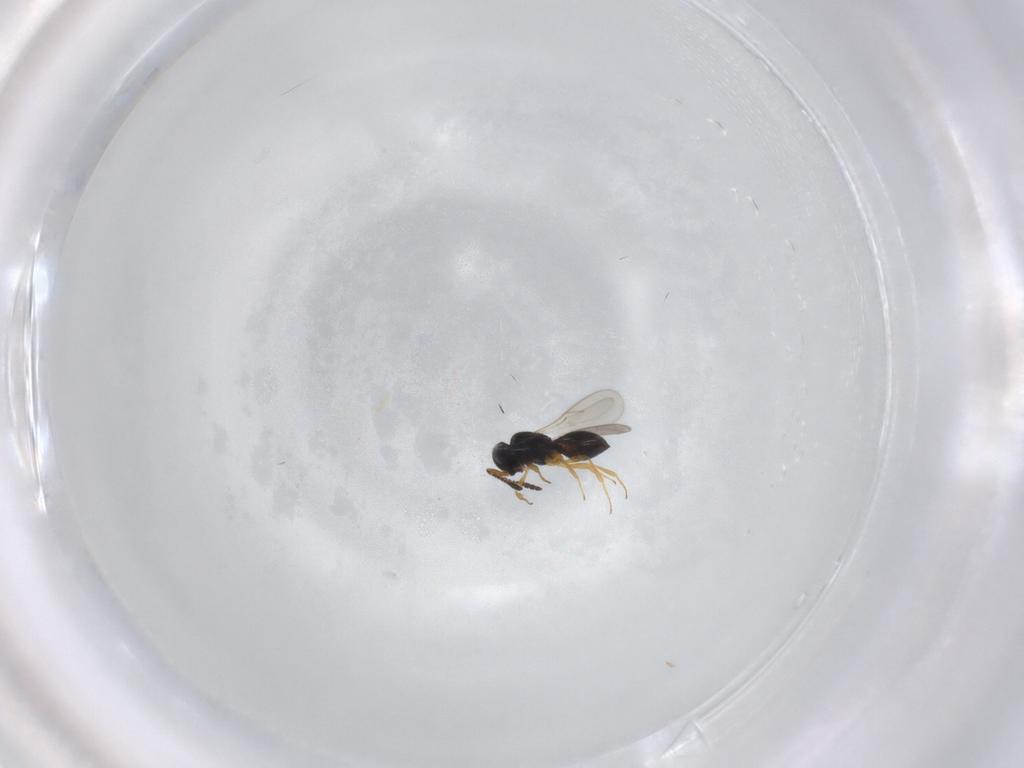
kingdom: Animalia
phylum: Arthropoda
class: Insecta
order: Hymenoptera
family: Scelionidae
